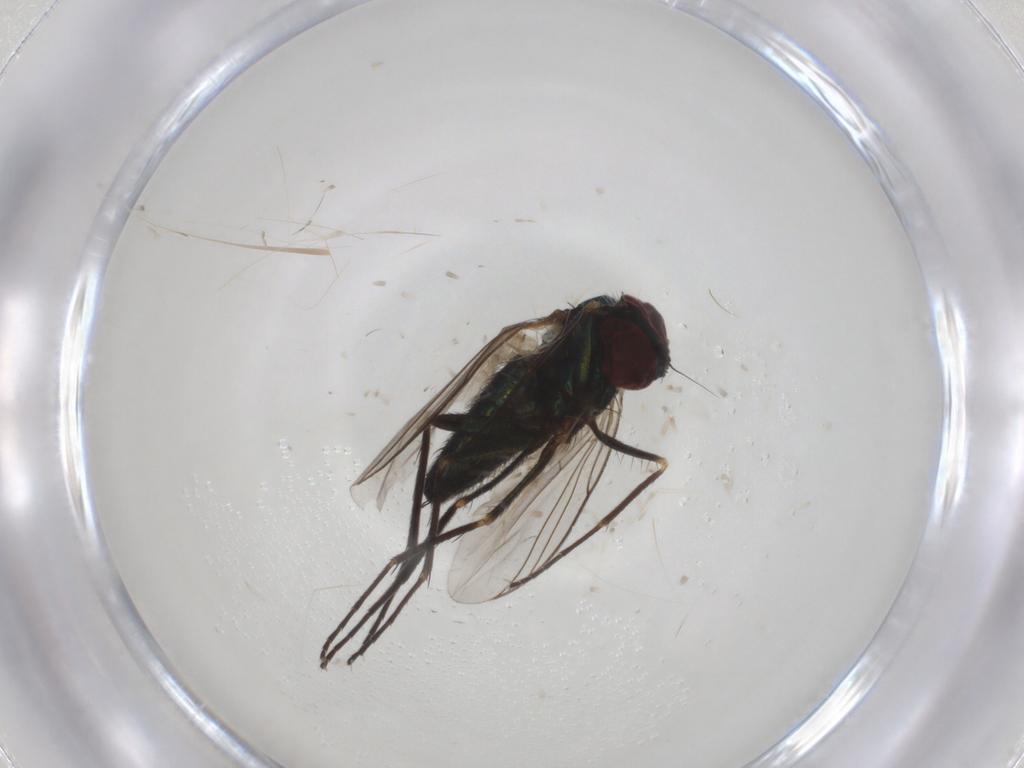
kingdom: Animalia
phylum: Arthropoda
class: Insecta
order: Diptera
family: Dolichopodidae
